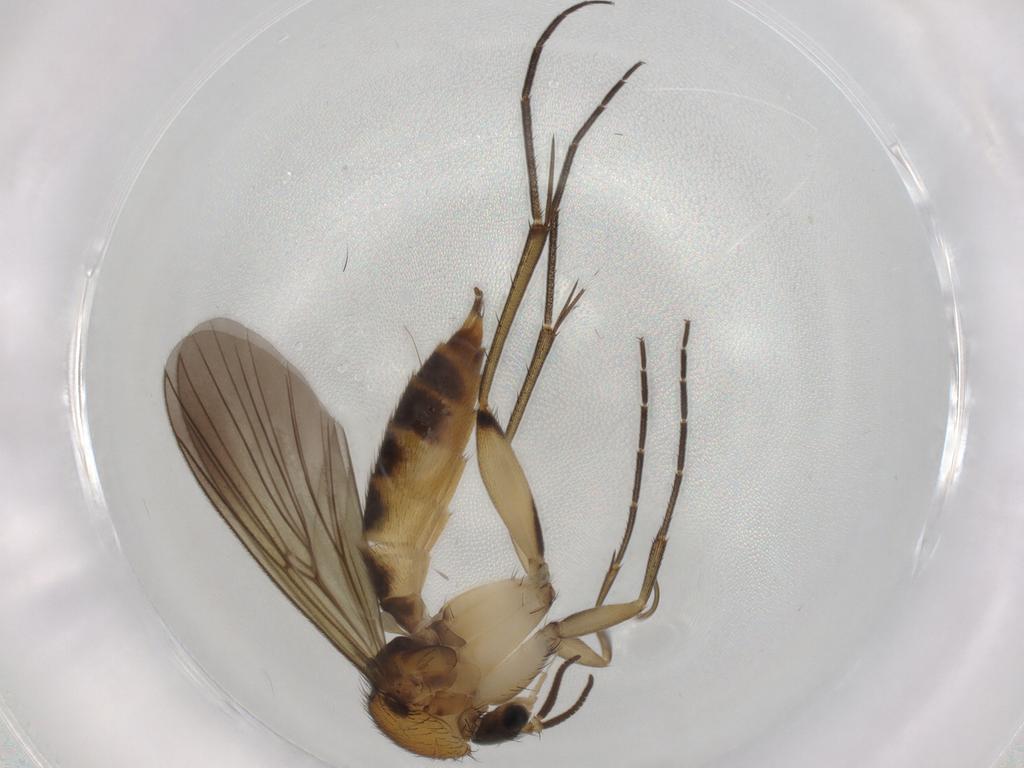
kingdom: Animalia
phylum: Arthropoda
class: Insecta
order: Diptera
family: Mycetophilidae
